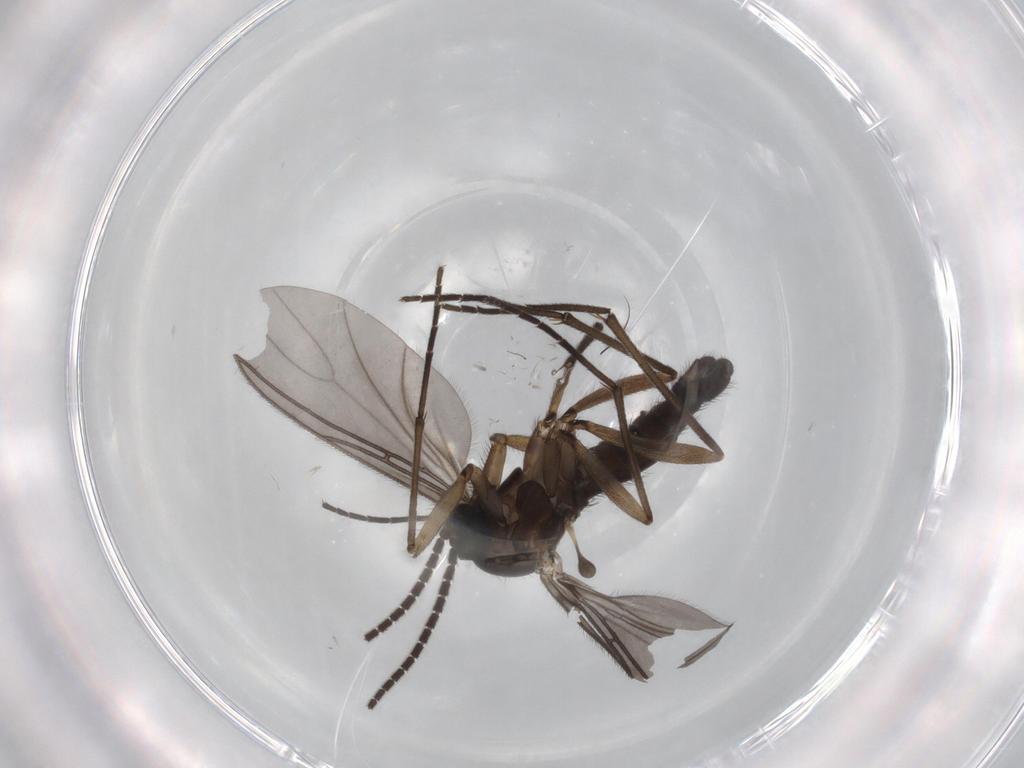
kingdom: Animalia
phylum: Arthropoda
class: Insecta
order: Diptera
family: Sciaridae
